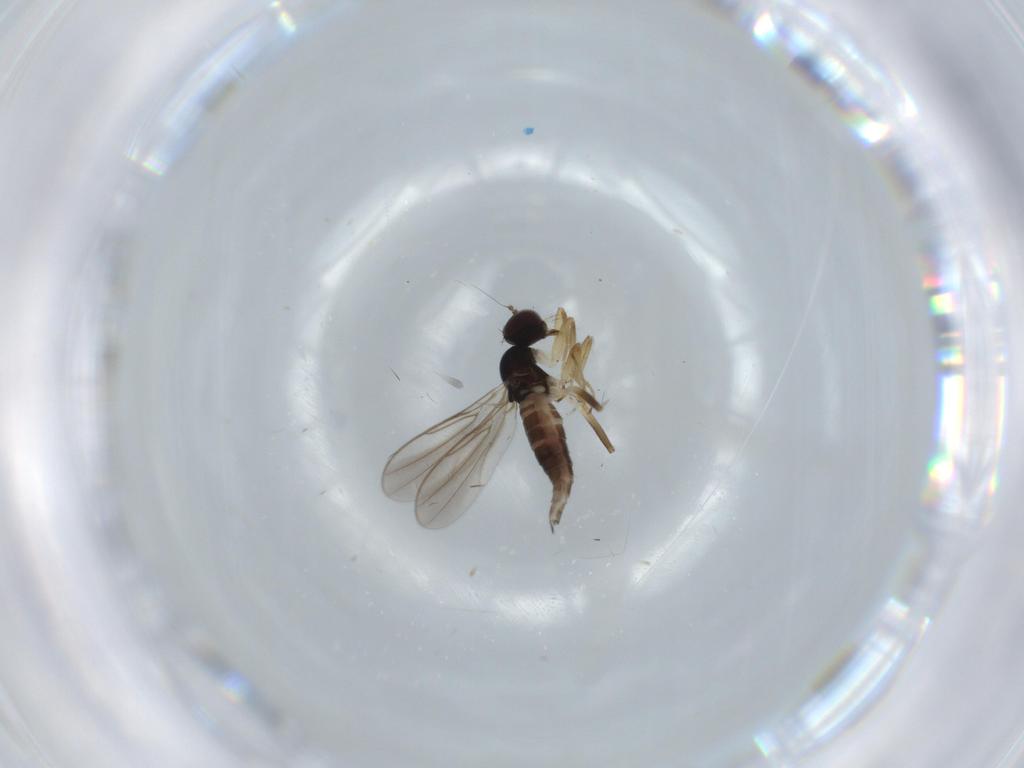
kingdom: Animalia
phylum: Arthropoda
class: Insecta
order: Diptera
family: Hybotidae
